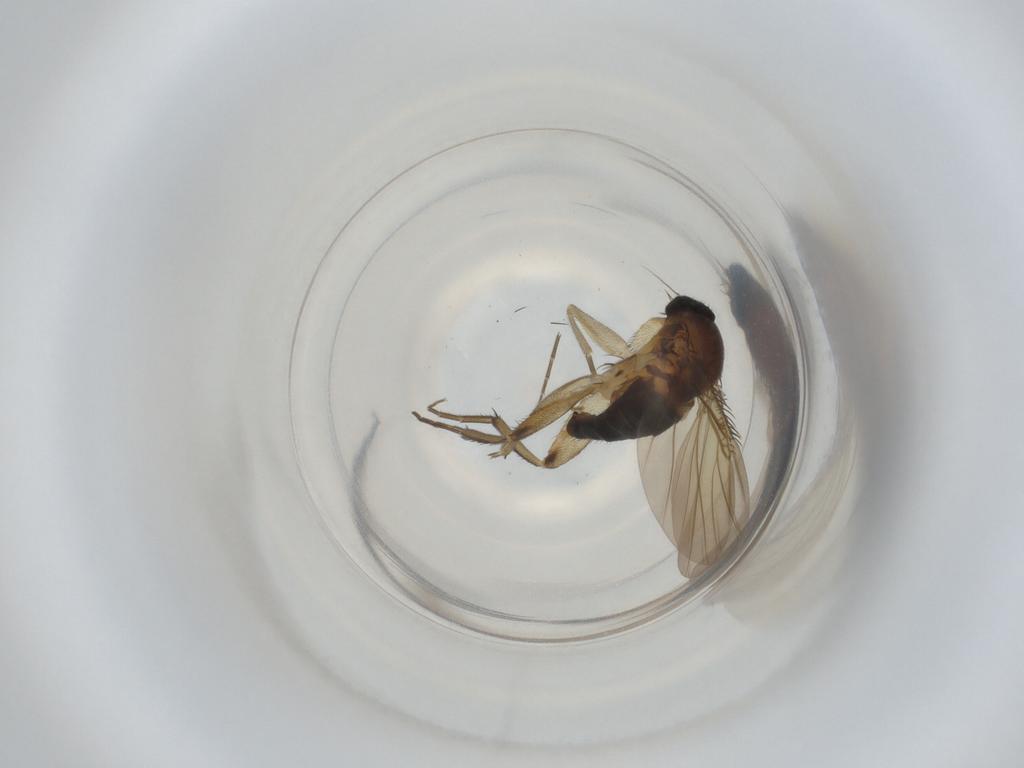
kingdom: Animalia
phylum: Arthropoda
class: Insecta
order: Diptera
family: Phoridae
